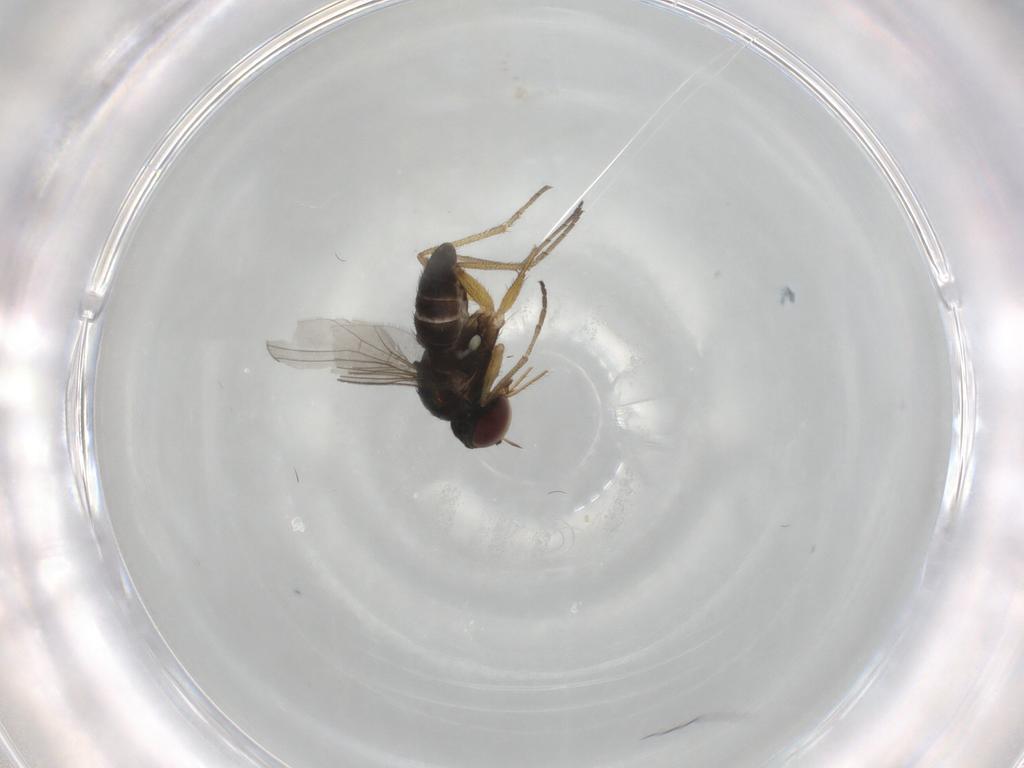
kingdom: Animalia
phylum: Arthropoda
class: Insecta
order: Diptera
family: Dolichopodidae
